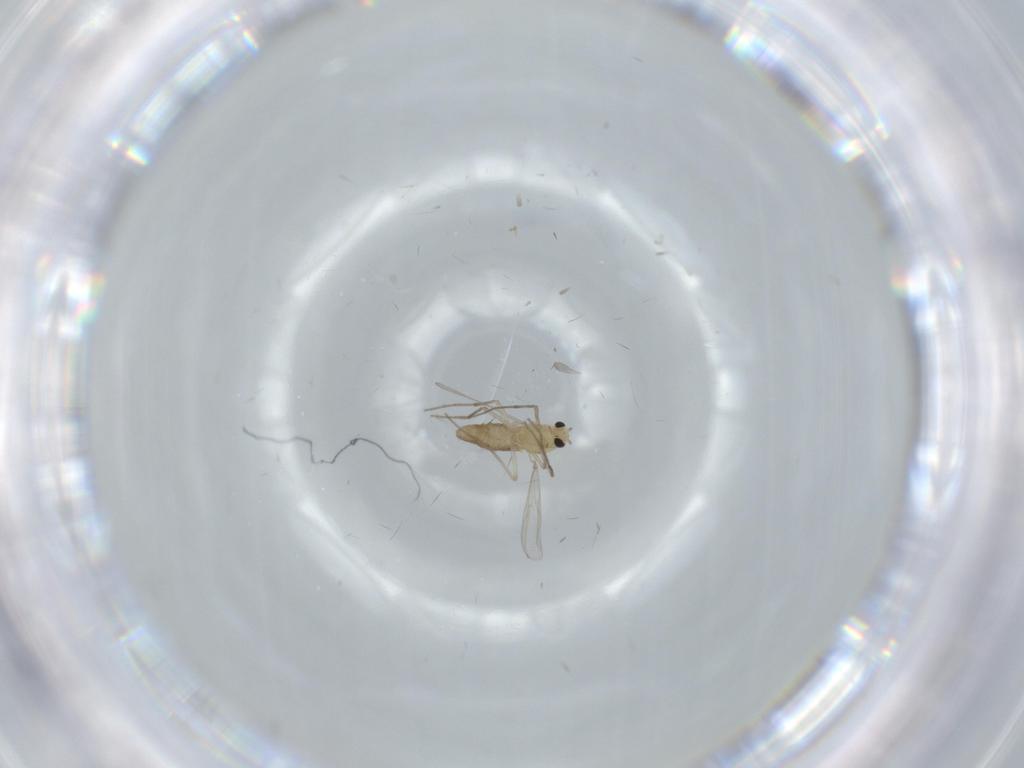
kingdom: Animalia
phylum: Arthropoda
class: Insecta
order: Diptera
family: Chironomidae
